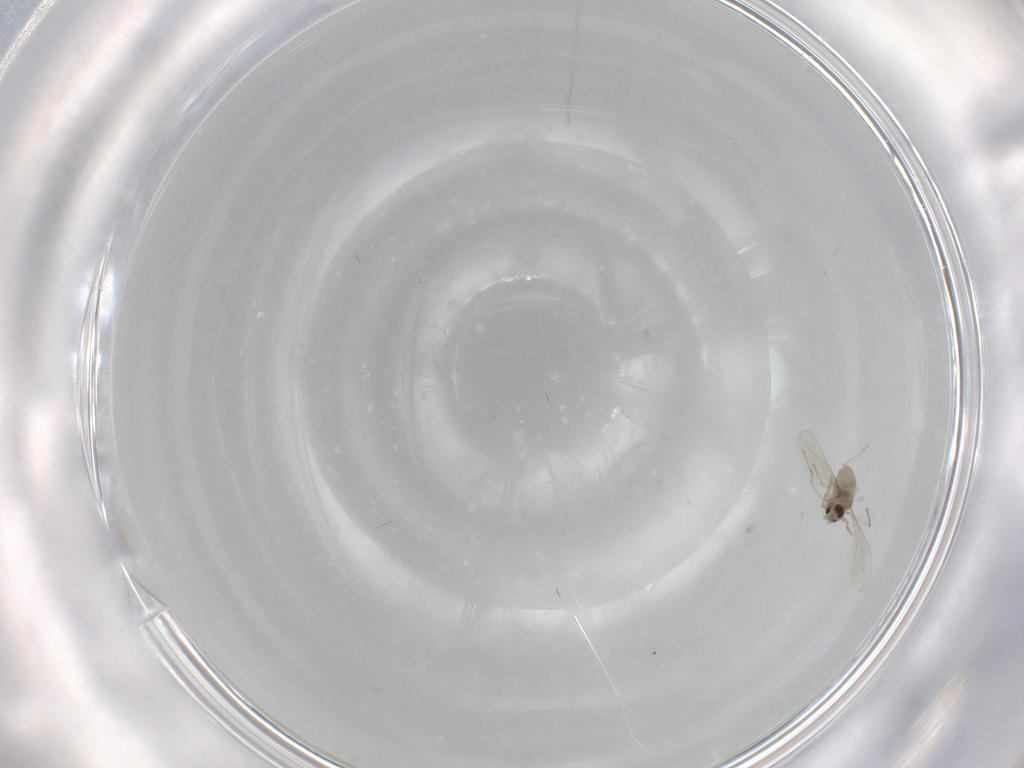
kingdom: Animalia
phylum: Arthropoda
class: Insecta
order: Diptera
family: Cecidomyiidae
